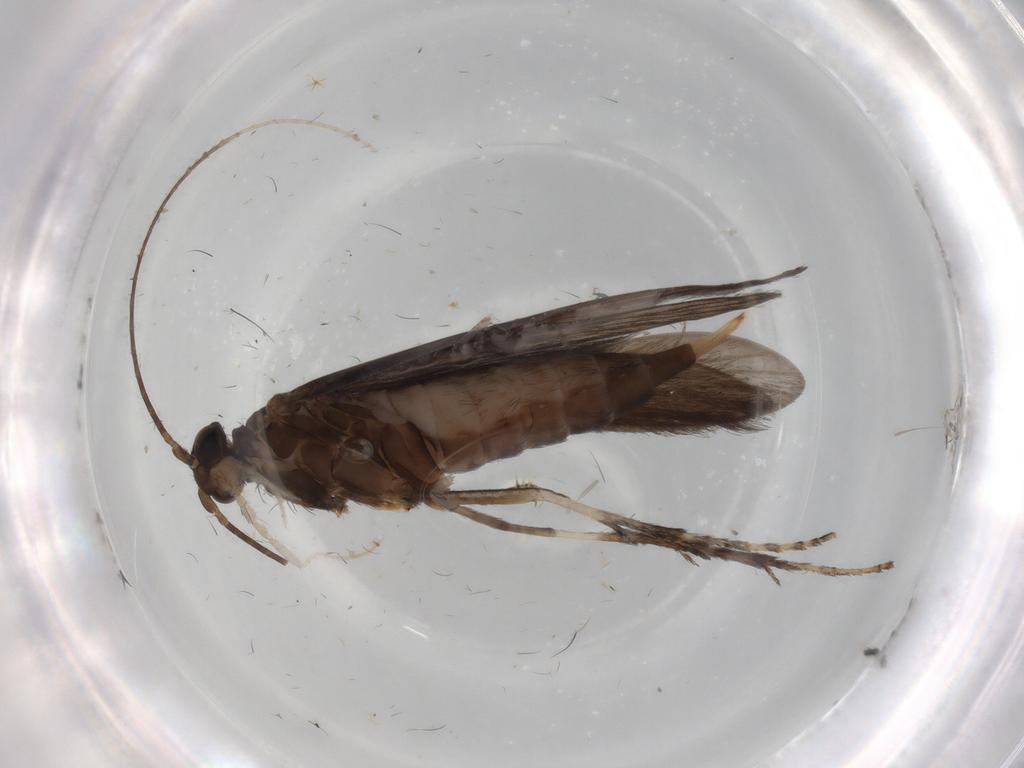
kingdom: Animalia
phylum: Arthropoda
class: Insecta
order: Trichoptera
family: Xiphocentronidae
